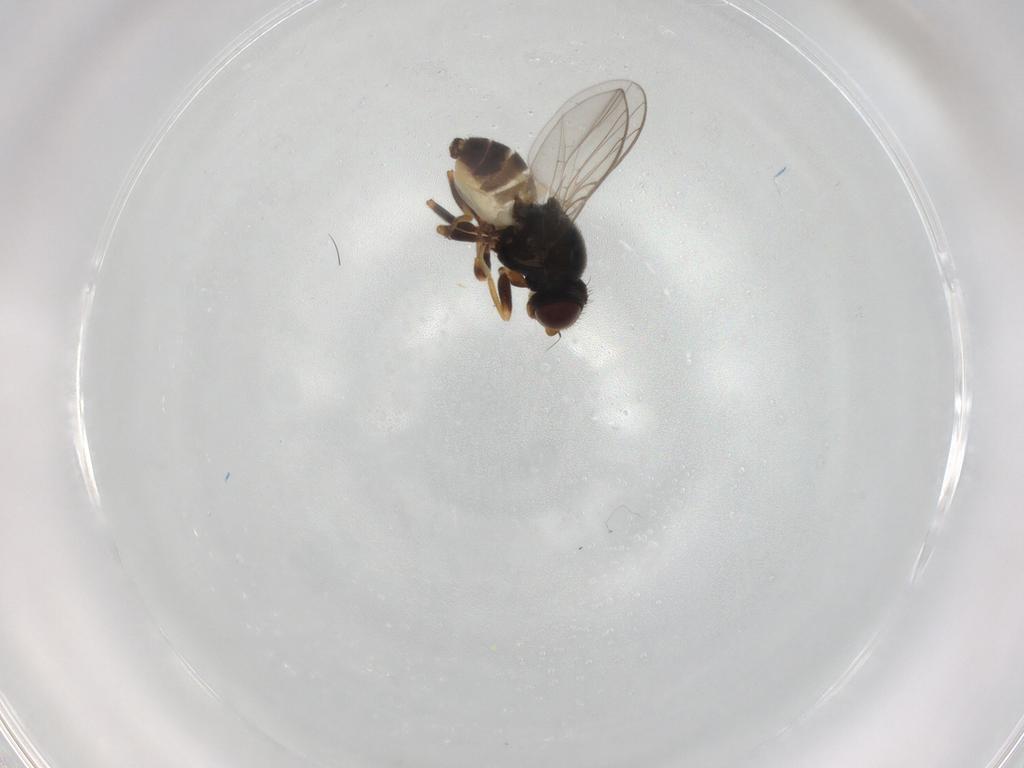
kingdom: Animalia
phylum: Arthropoda
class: Insecta
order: Diptera
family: Chloropidae
